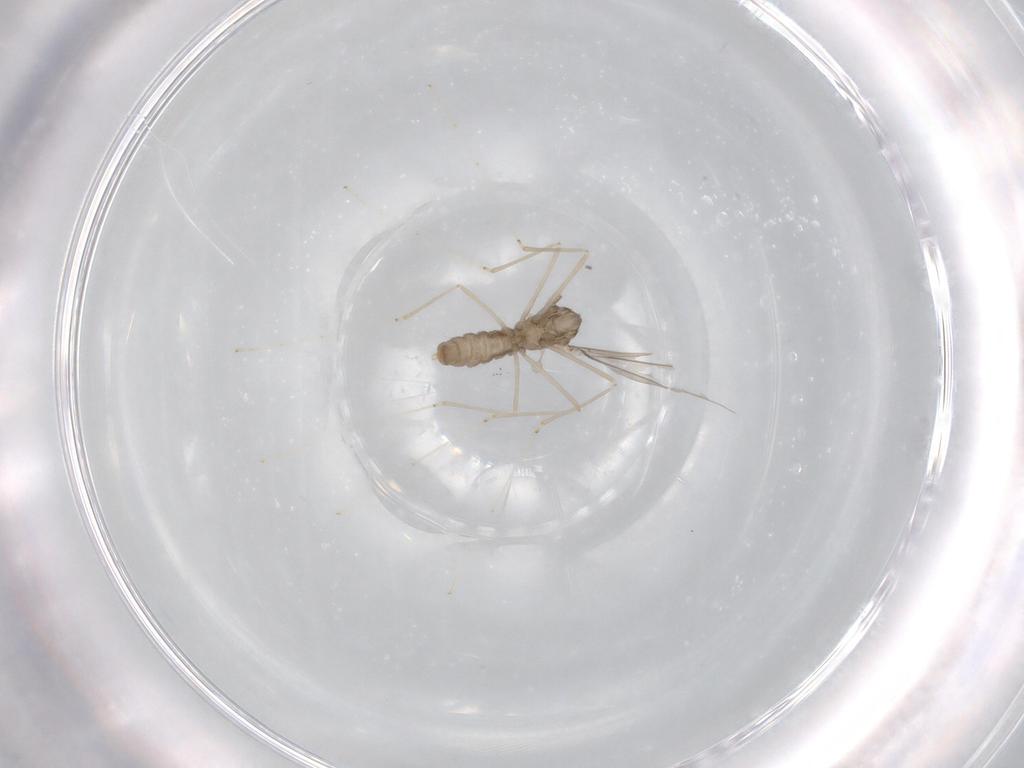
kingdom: Animalia
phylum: Arthropoda
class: Insecta
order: Diptera
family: Cecidomyiidae
